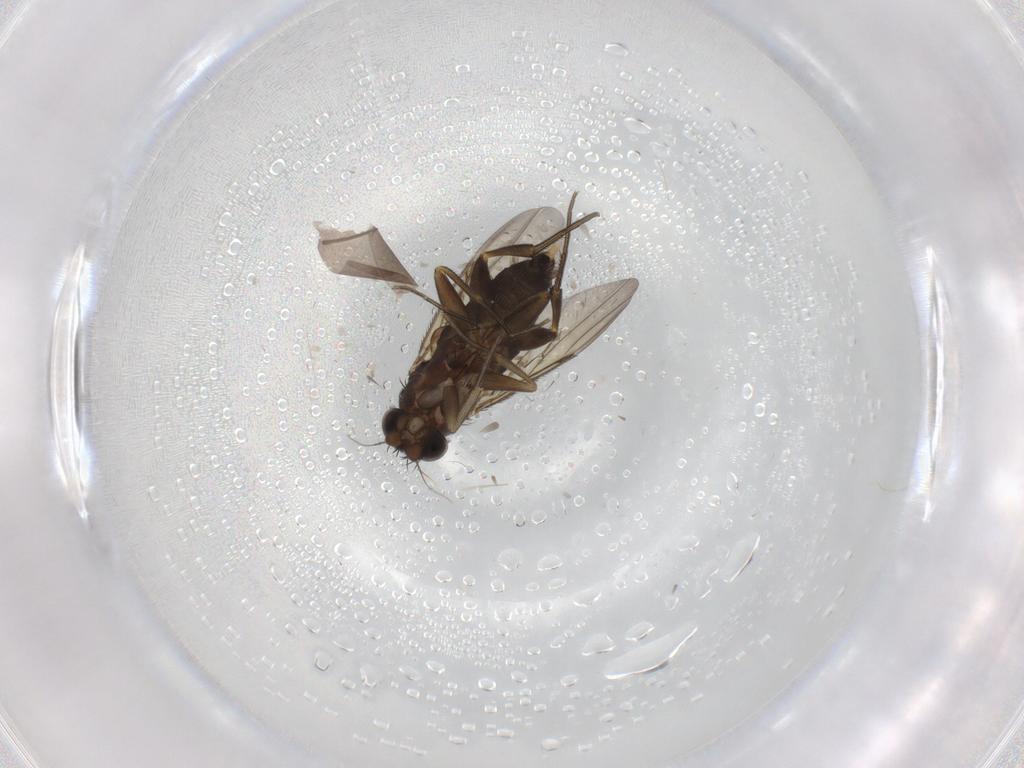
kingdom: Animalia
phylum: Arthropoda
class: Insecta
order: Diptera
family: Phoridae
